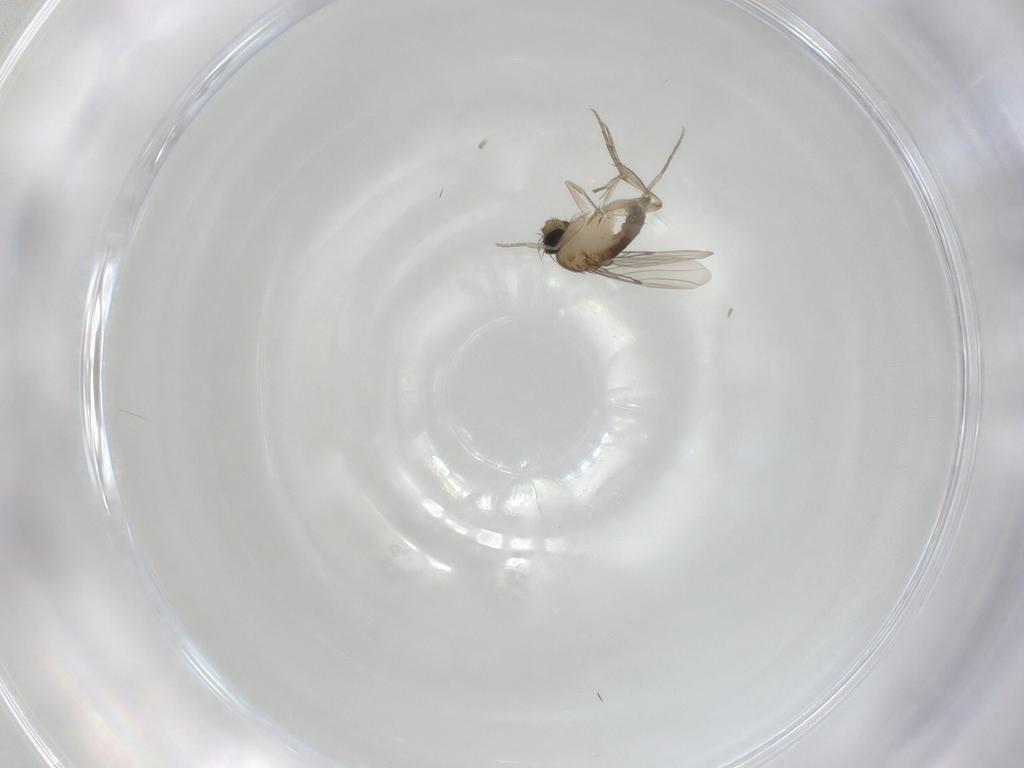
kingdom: Animalia
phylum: Arthropoda
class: Insecta
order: Diptera
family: Phoridae
